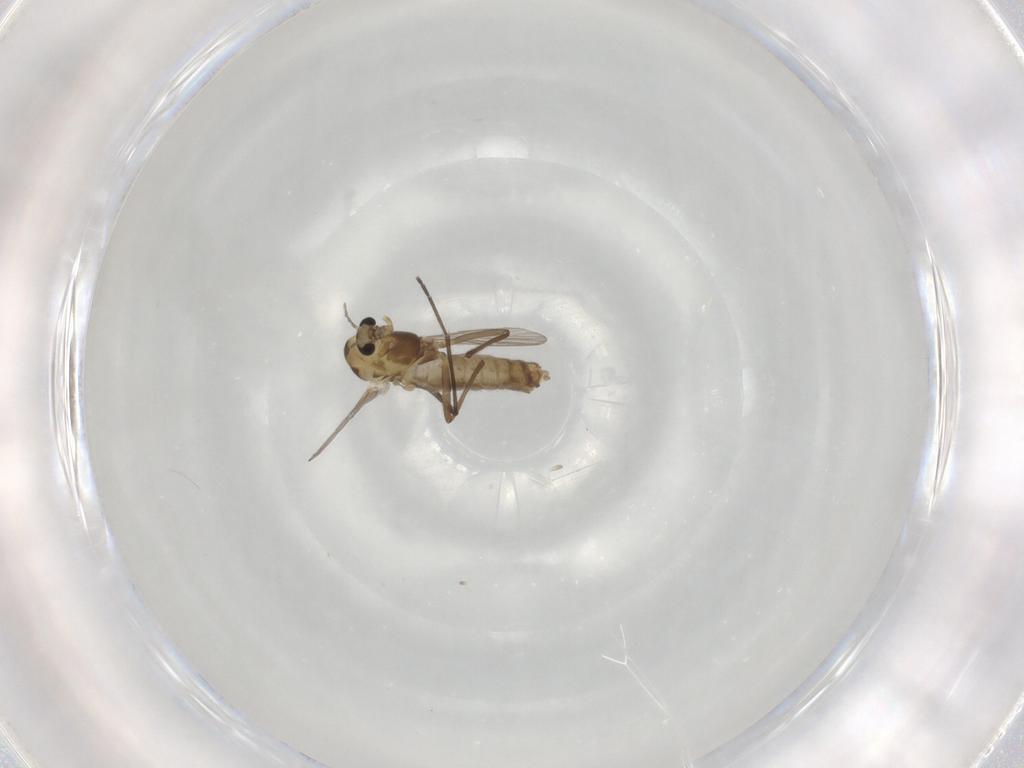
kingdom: Animalia
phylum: Arthropoda
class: Insecta
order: Diptera
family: Chironomidae
